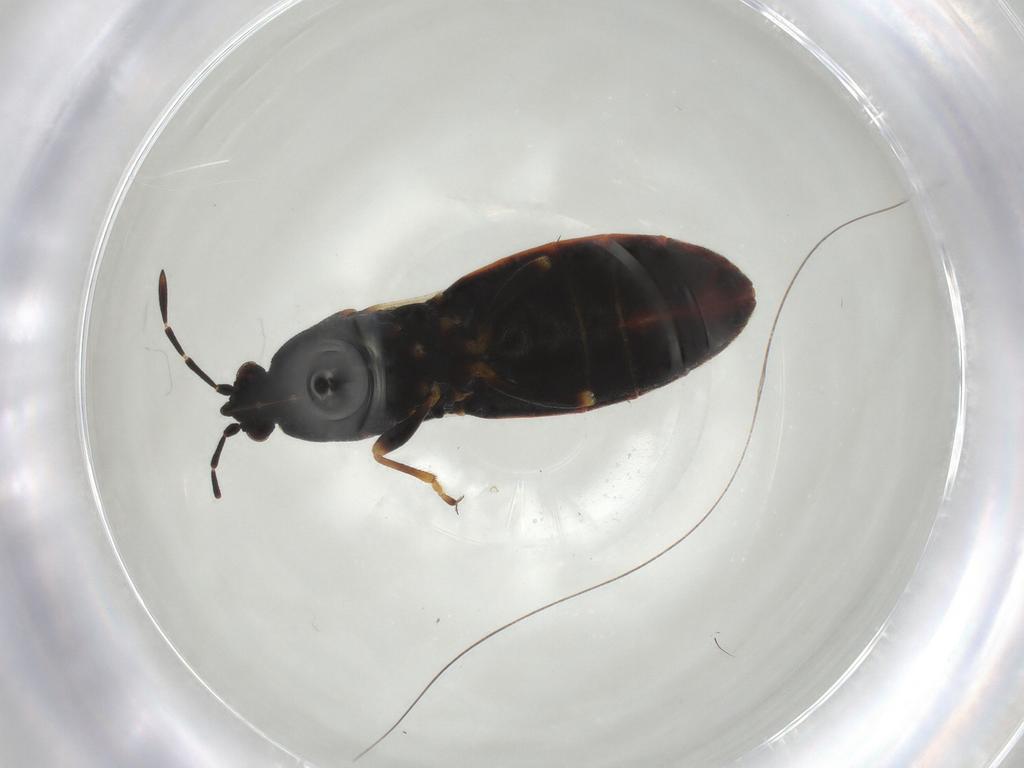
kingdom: Animalia
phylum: Arthropoda
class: Insecta
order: Hemiptera
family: Blissidae
